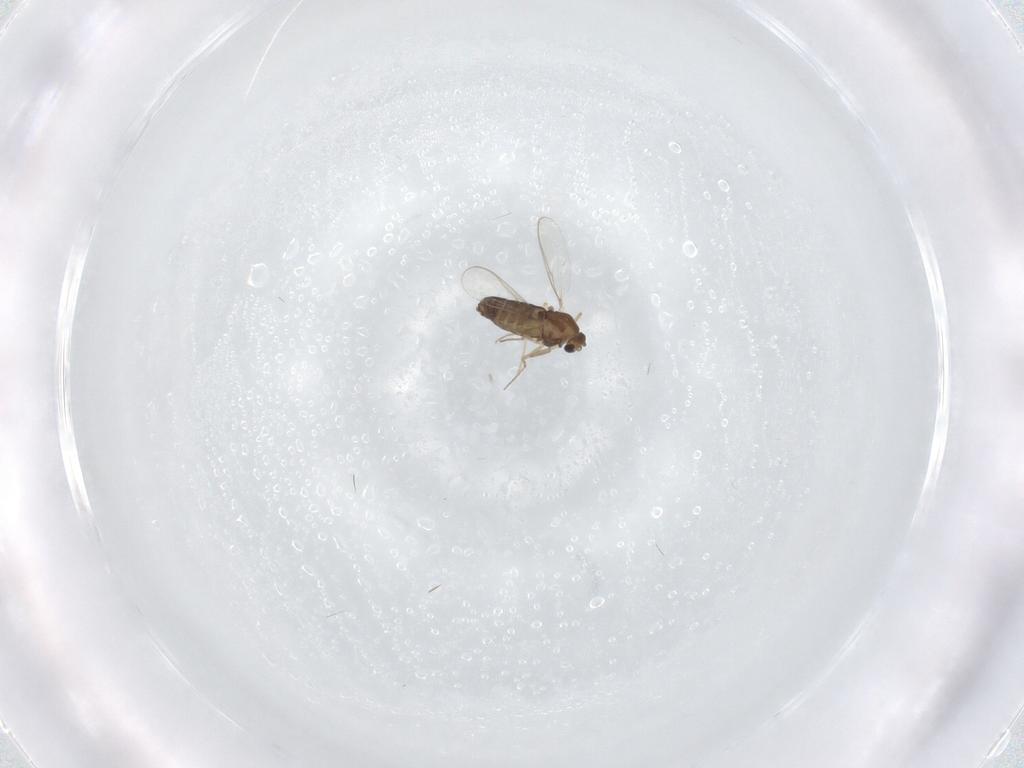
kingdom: Animalia
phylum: Arthropoda
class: Insecta
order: Diptera
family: Chironomidae
